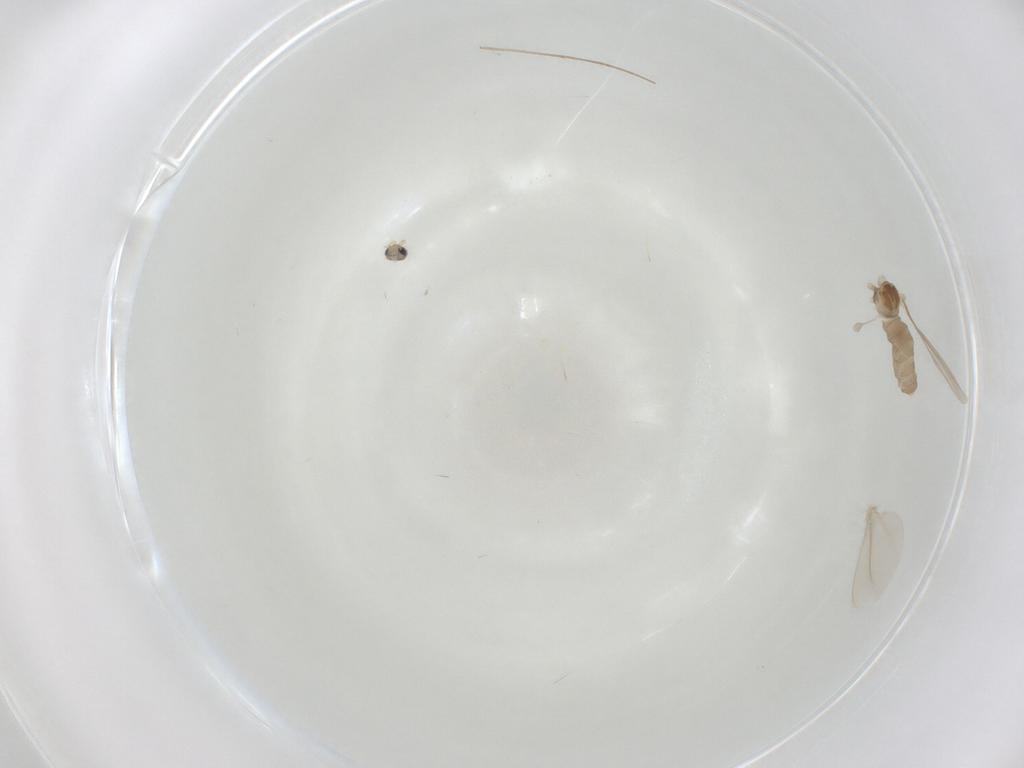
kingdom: Animalia
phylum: Arthropoda
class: Insecta
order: Diptera
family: Cecidomyiidae
